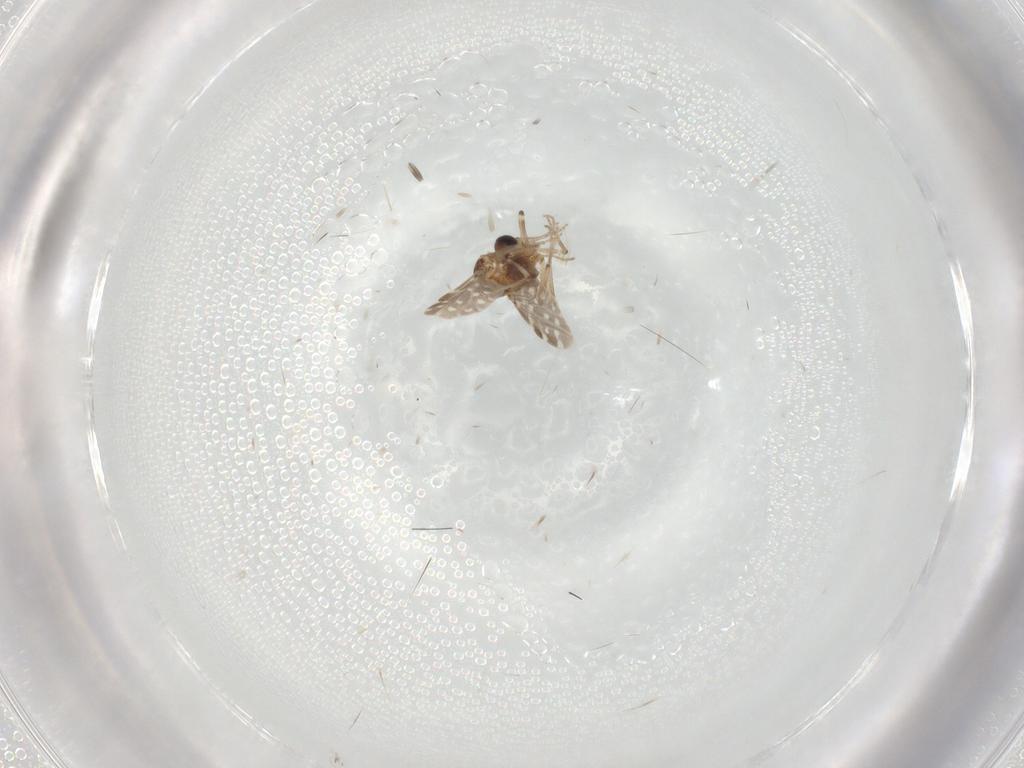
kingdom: Animalia
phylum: Arthropoda
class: Insecta
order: Diptera
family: Ceratopogonidae
